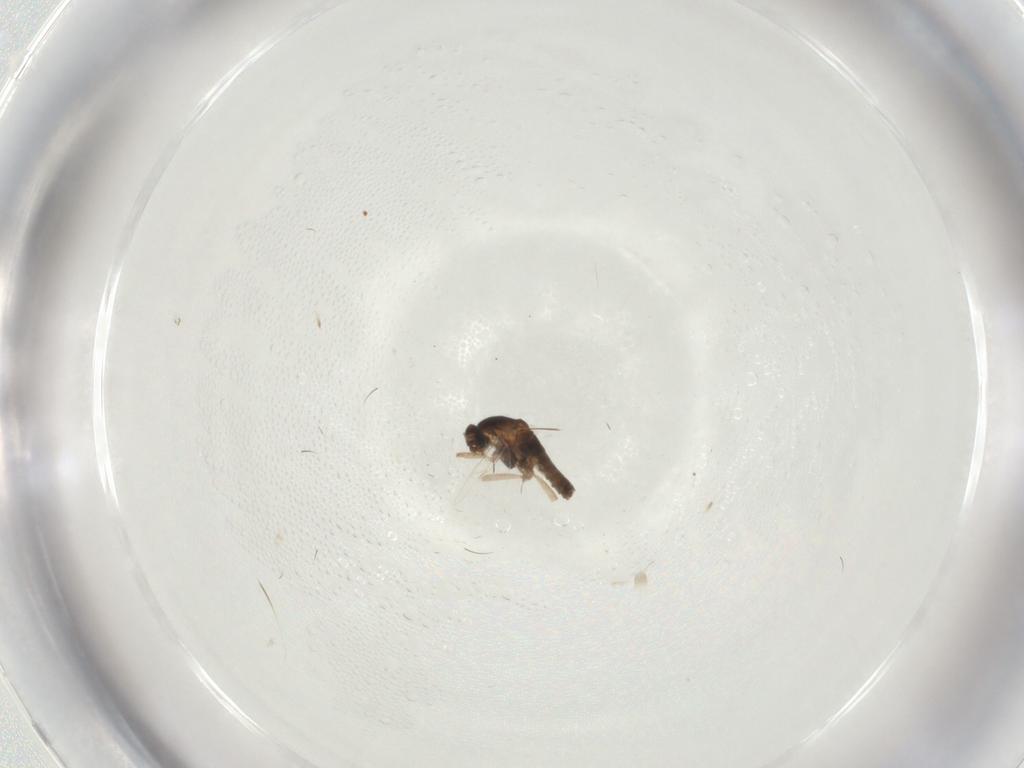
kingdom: Animalia
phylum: Arthropoda
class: Insecta
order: Diptera
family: Cecidomyiidae
